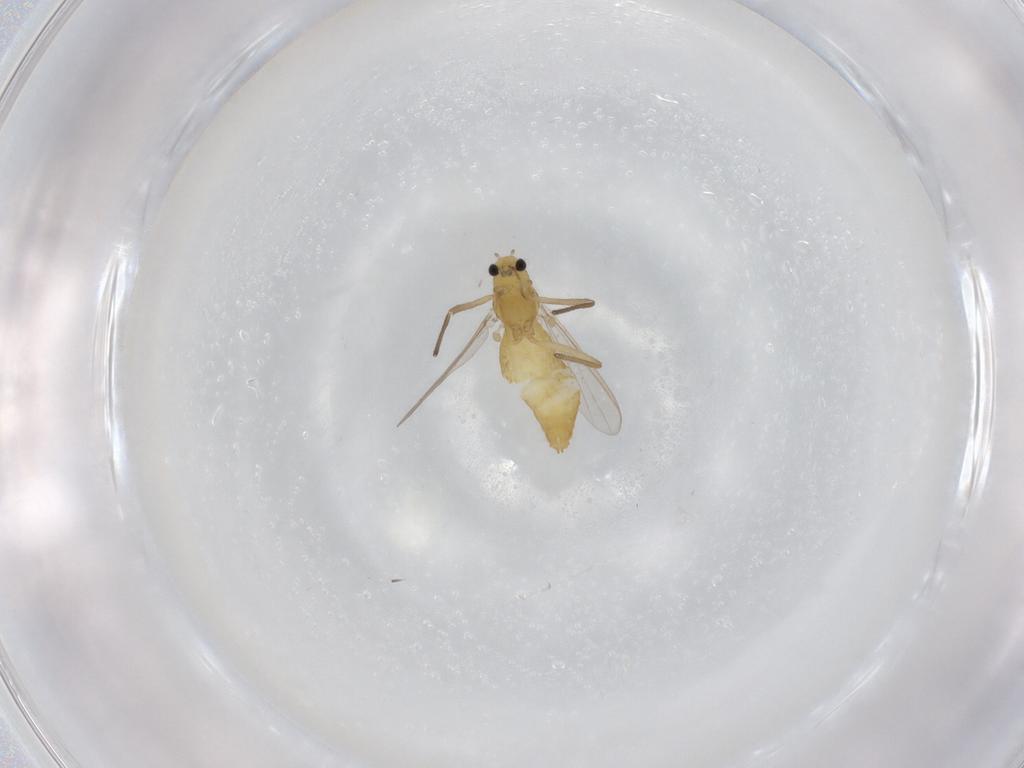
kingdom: Animalia
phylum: Arthropoda
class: Insecta
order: Diptera
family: Chironomidae
